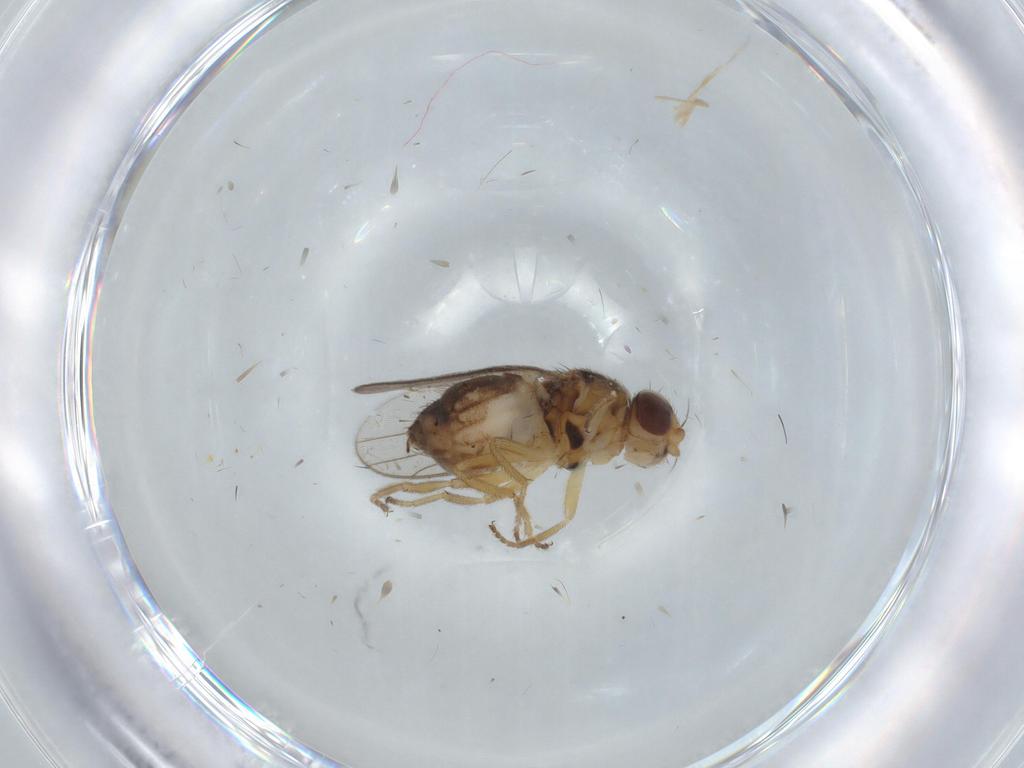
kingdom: Animalia
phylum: Arthropoda
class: Insecta
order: Diptera
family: Chloropidae
